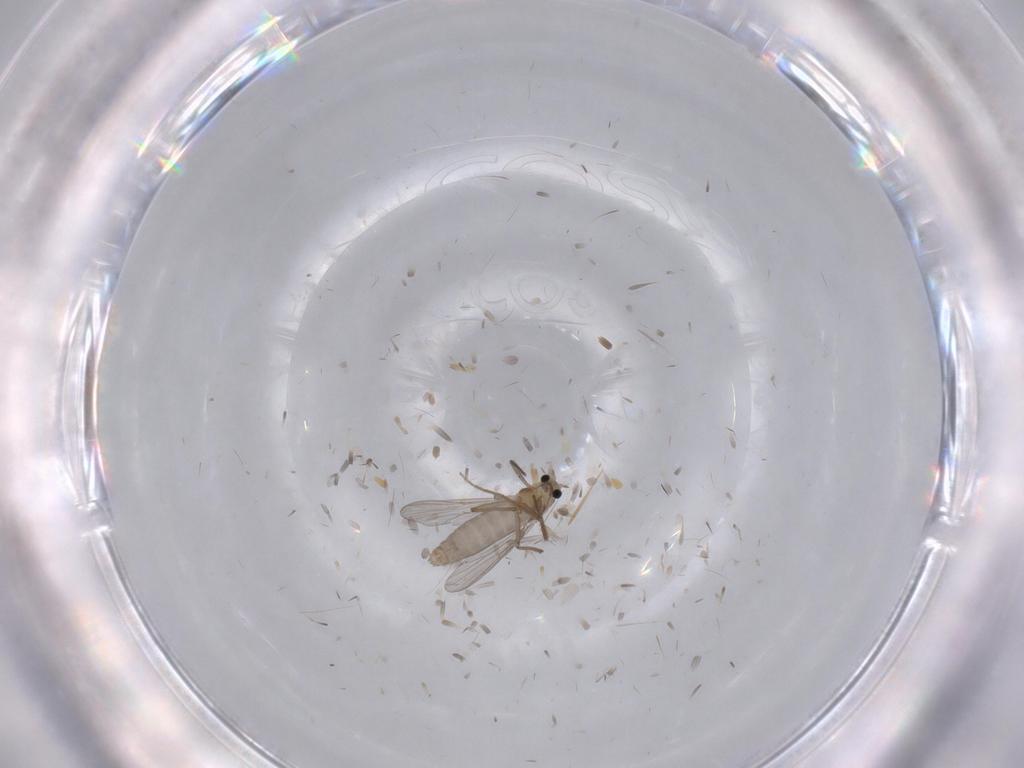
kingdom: Animalia
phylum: Arthropoda
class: Insecta
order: Diptera
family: Chironomidae
